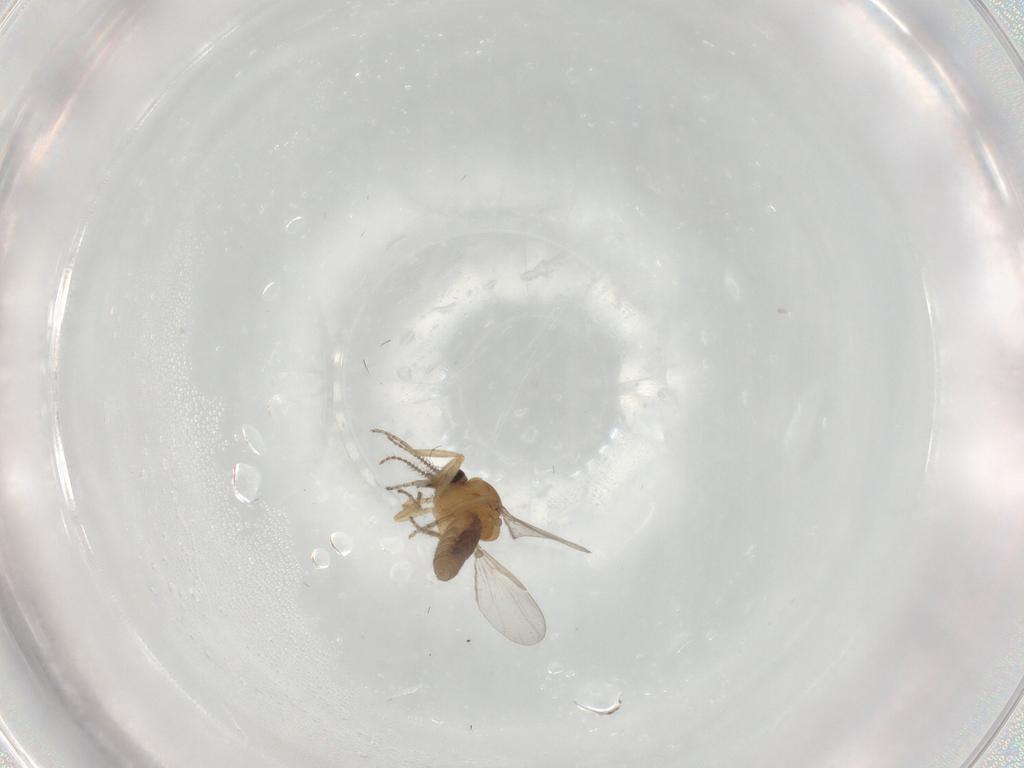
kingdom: Animalia
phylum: Arthropoda
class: Insecta
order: Diptera
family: Ceratopogonidae
